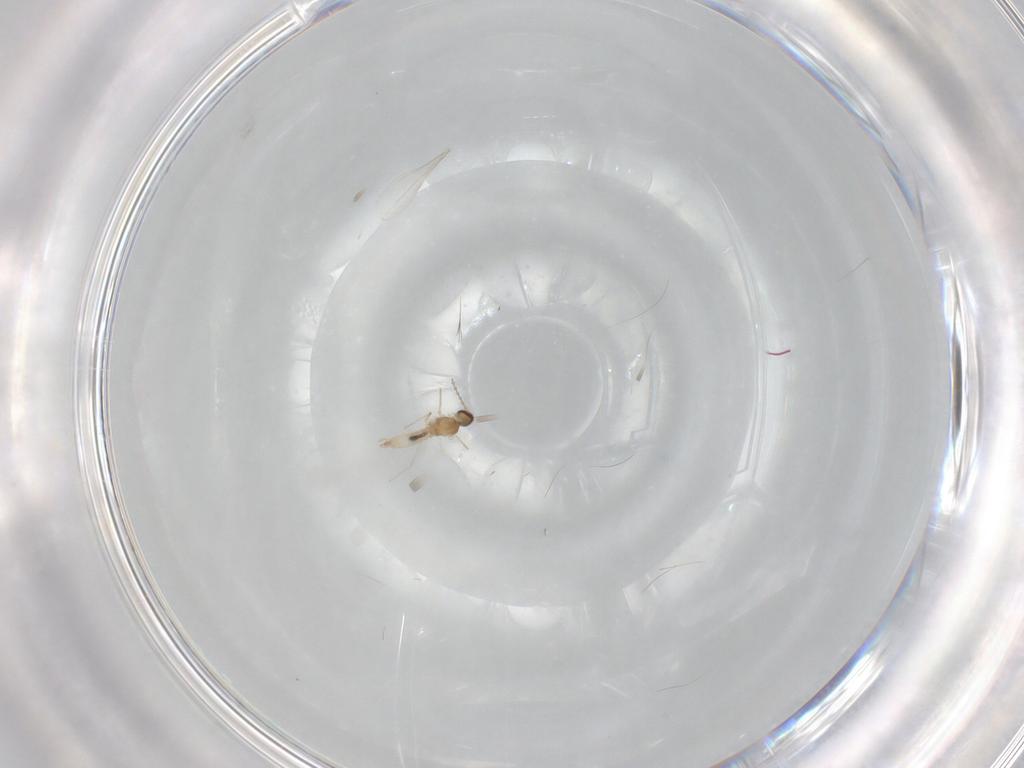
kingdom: Animalia
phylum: Arthropoda
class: Insecta
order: Diptera
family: Cecidomyiidae
